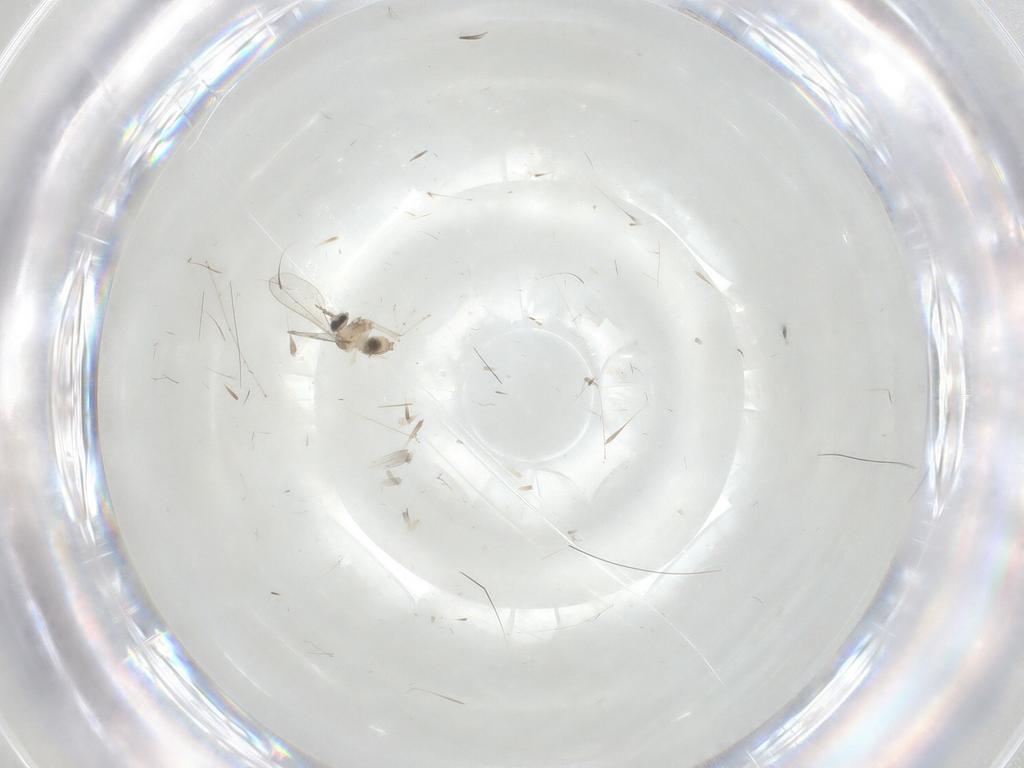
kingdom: Animalia
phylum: Arthropoda
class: Insecta
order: Diptera
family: Cecidomyiidae
